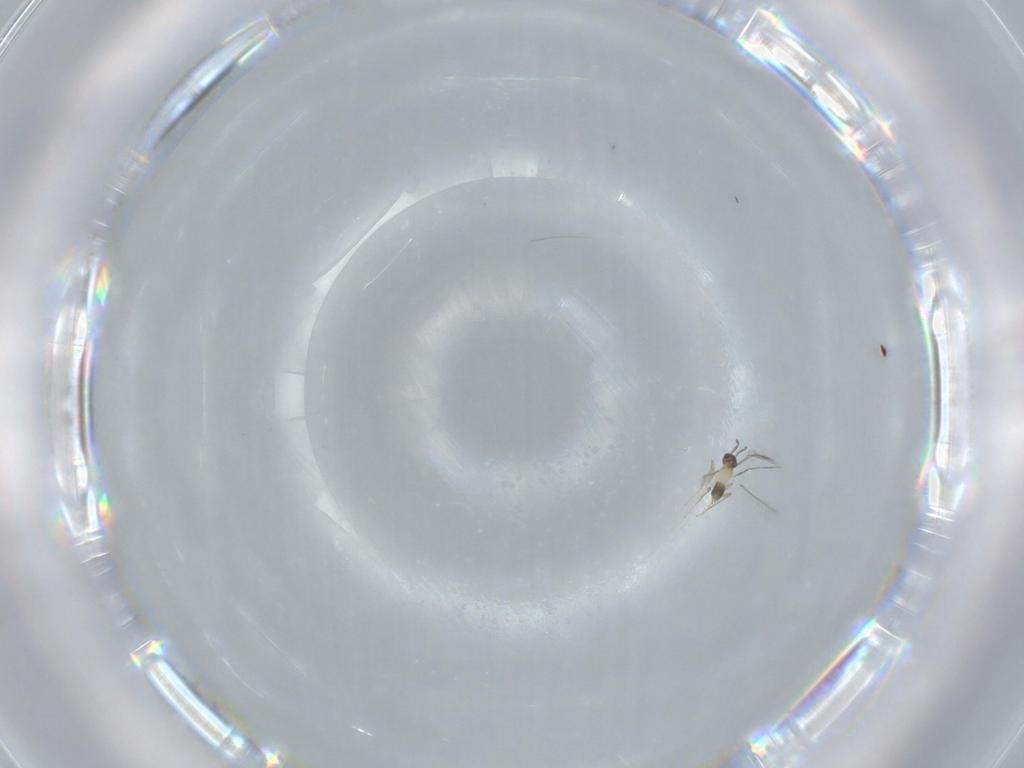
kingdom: Animalia
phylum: Arthropoda
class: Insecta
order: Hymenoptera
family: Mymaridae
